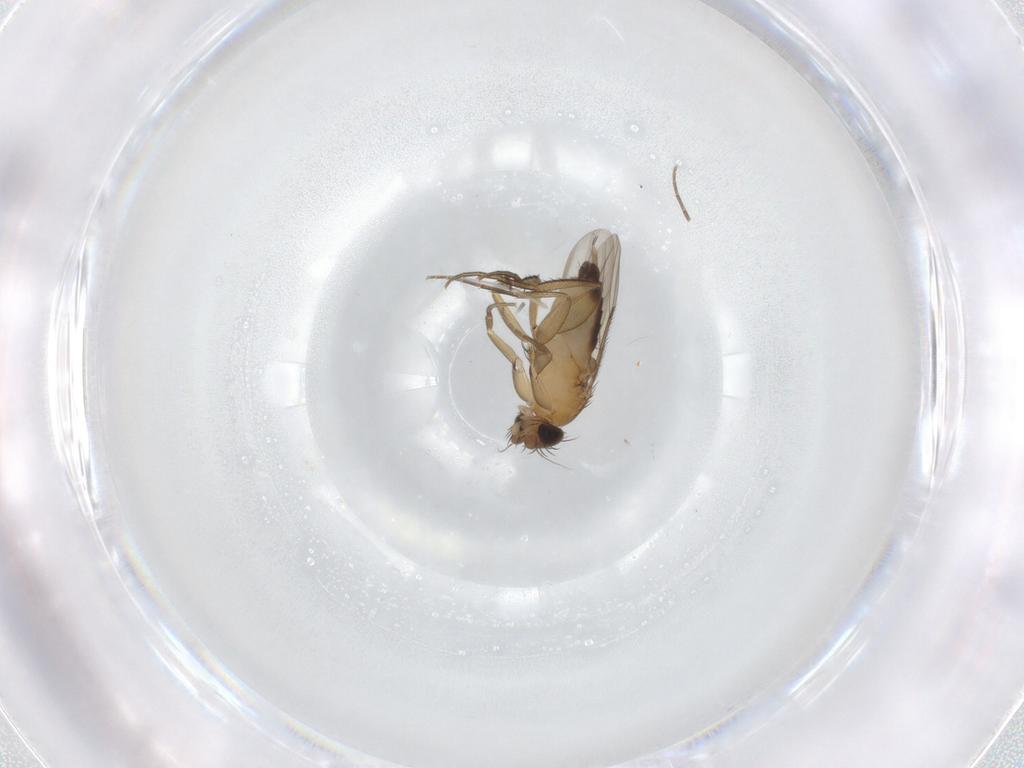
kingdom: Animalia
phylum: Arthropoda
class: Insecta
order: Diptera
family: Phoridae
